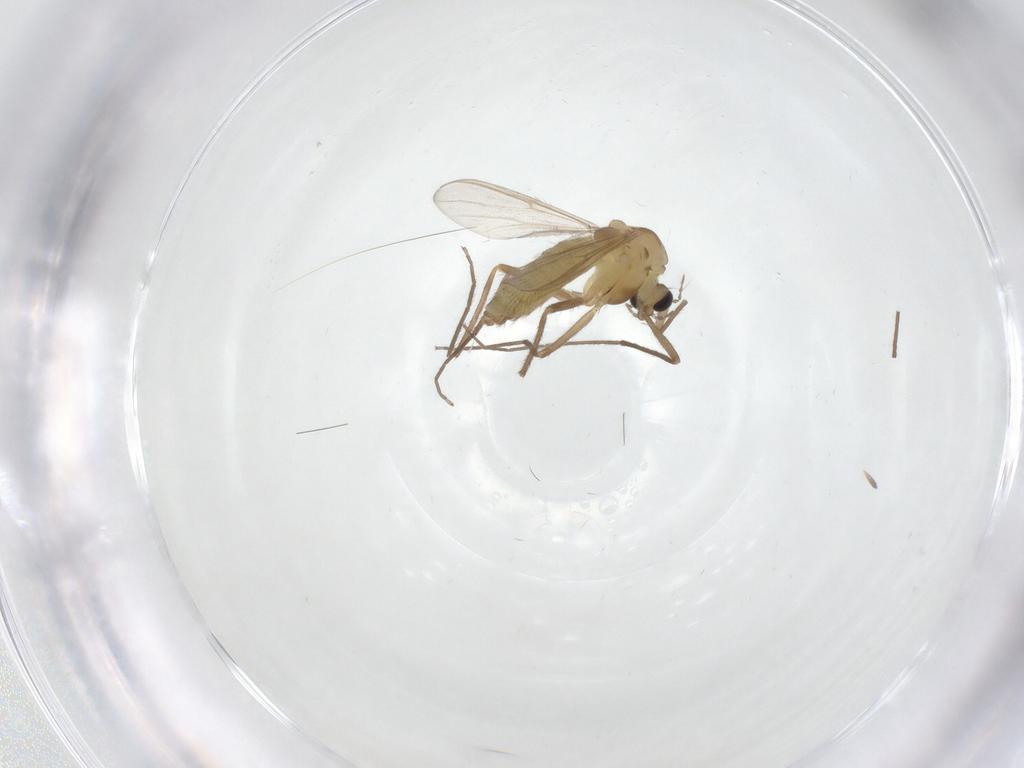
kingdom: Animalia
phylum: Arthropoda
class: Insecta
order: Diptera
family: Chironomidae
